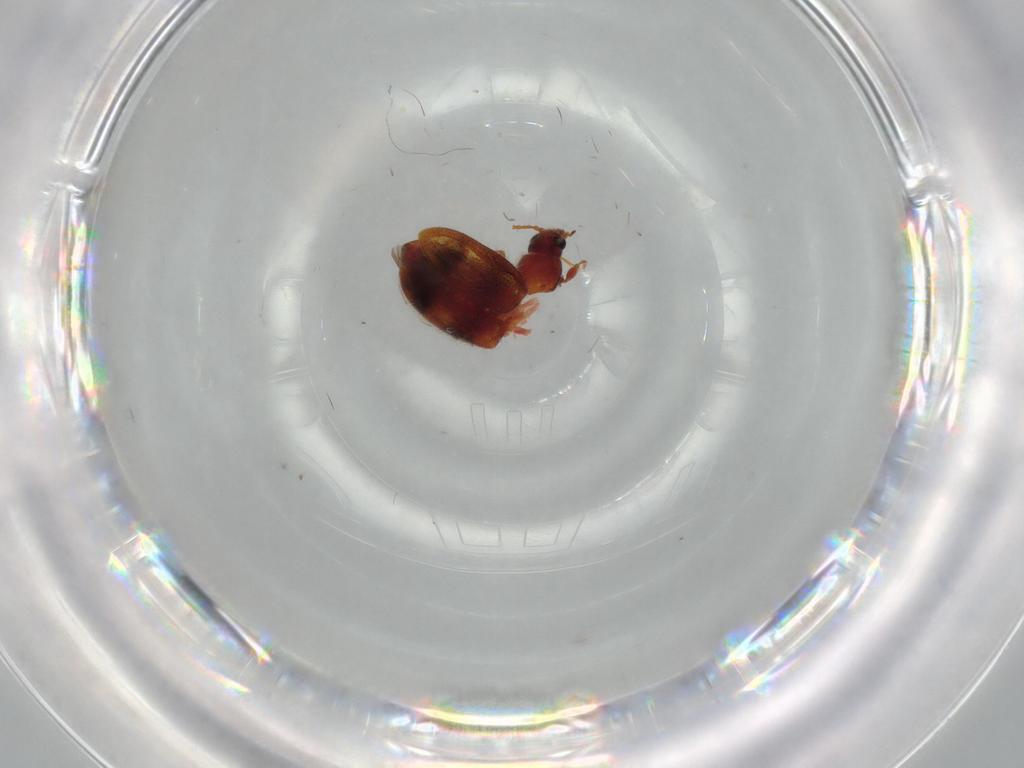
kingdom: Animalia
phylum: Arthropoda
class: Insecta
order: Coleoptera
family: Erotylidae
